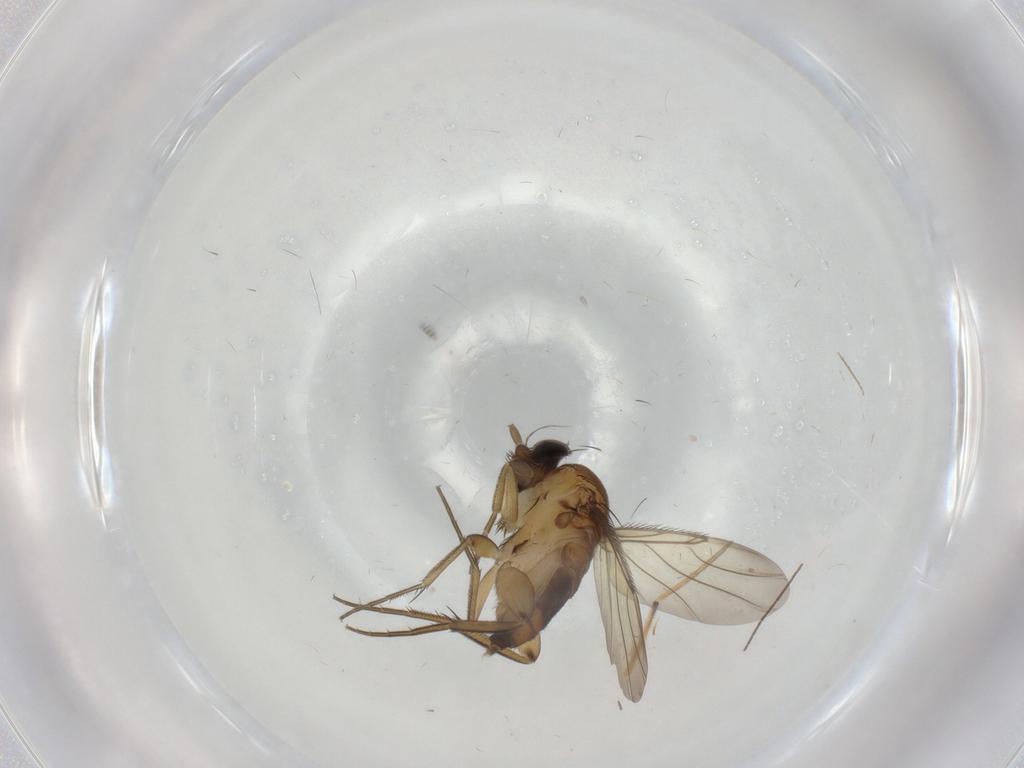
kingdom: Animalia
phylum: Arthropoda
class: Insecta
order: Diptera
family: Phoridae
